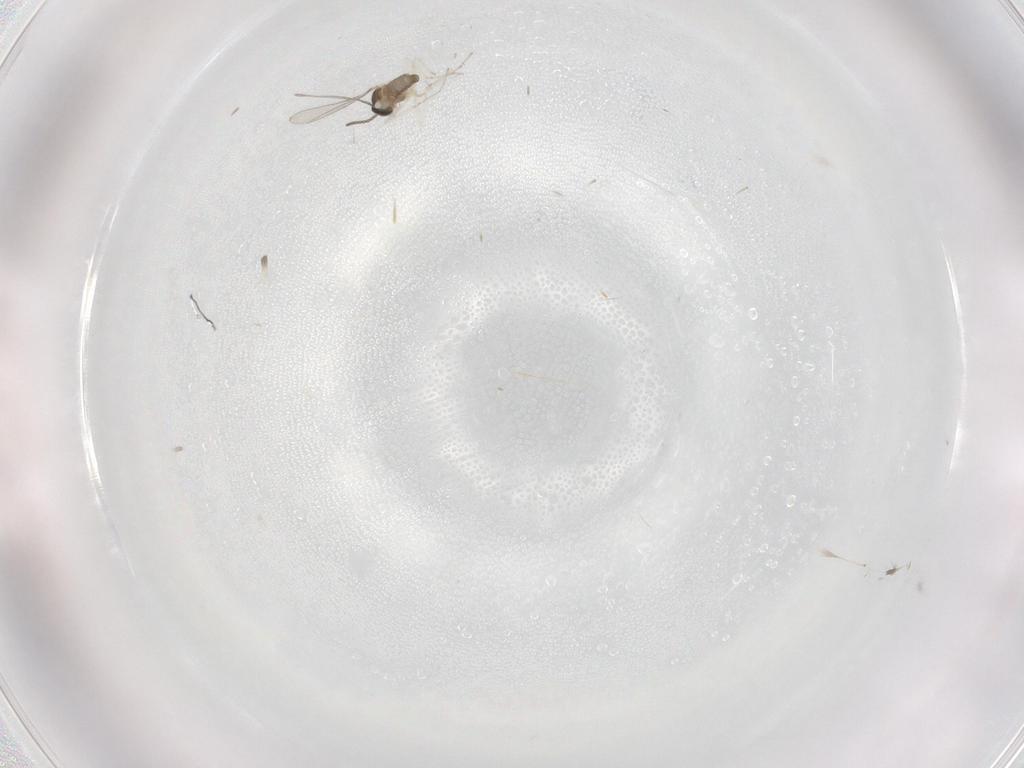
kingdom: Animalia
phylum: Arthropoda
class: Insecta
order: Diptera
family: Cecidomyiidae
